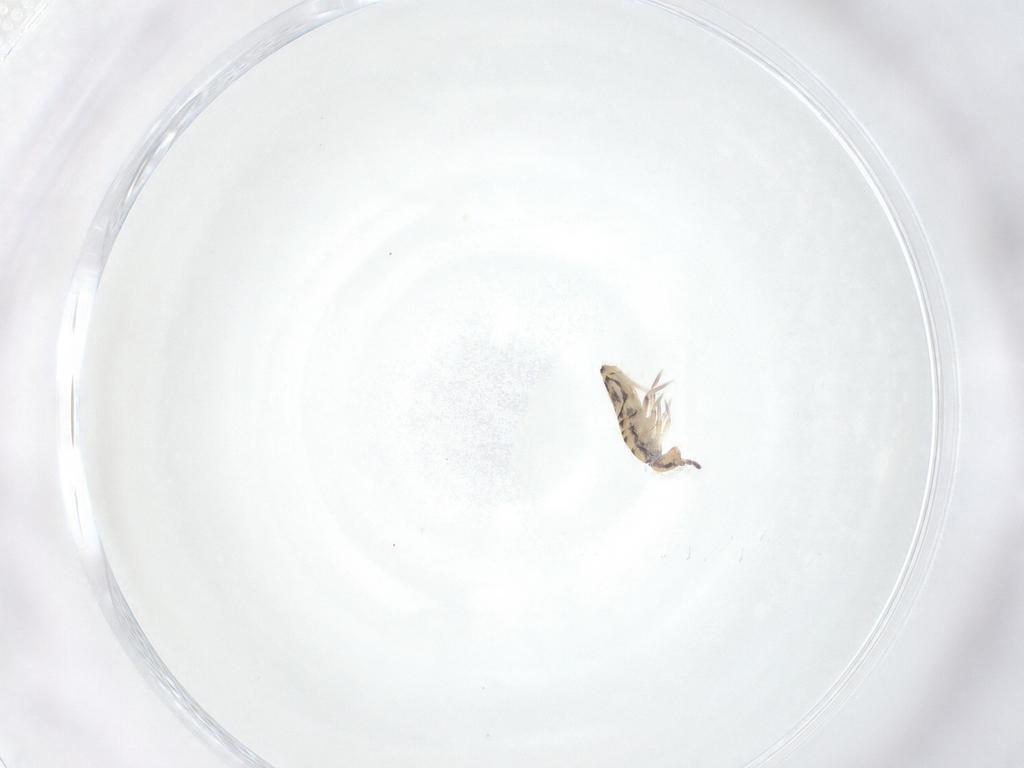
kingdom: Animalia
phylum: Arthropoda
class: Collembola
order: Entomobryomorpha
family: Entomobryidae
